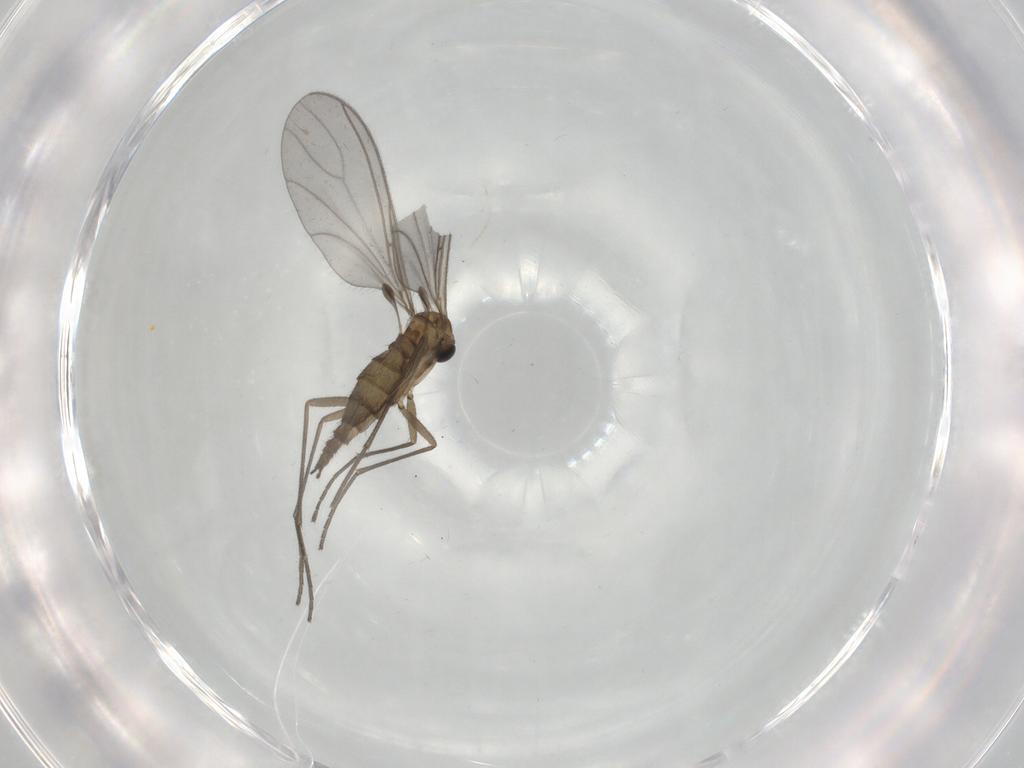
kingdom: Animalia
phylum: Arthropoda
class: Insecta
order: Diptera
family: Sciaridae
